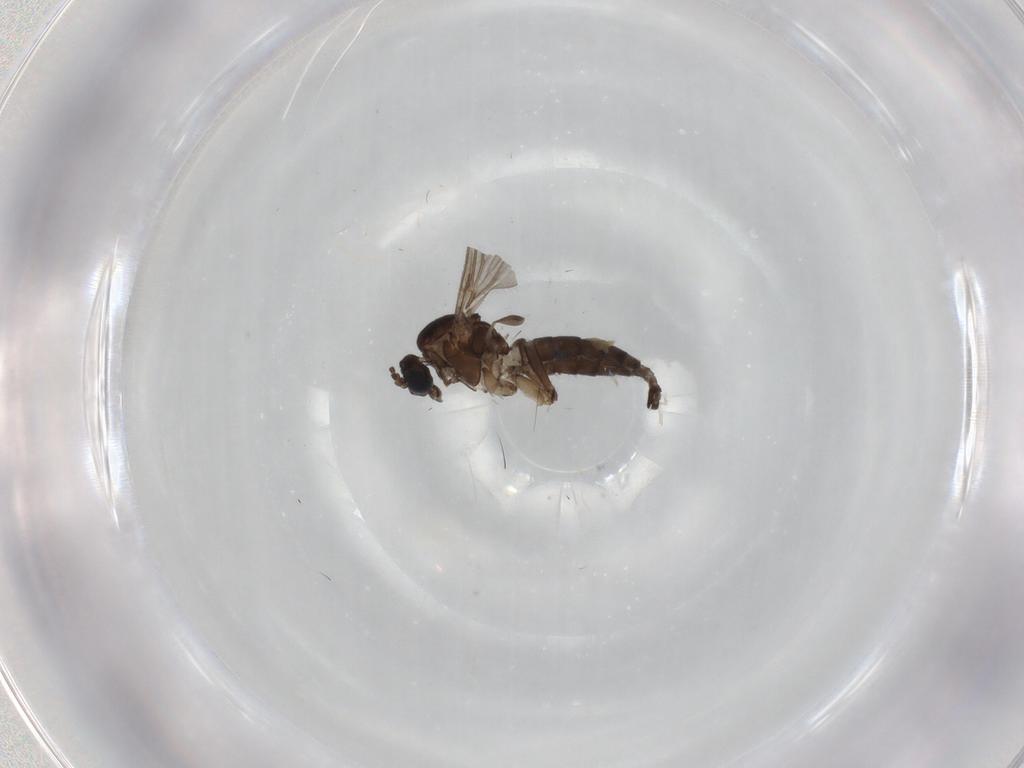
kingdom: Animalia
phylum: Arthropoda
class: Insecta
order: Diptera
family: Sciaridae
